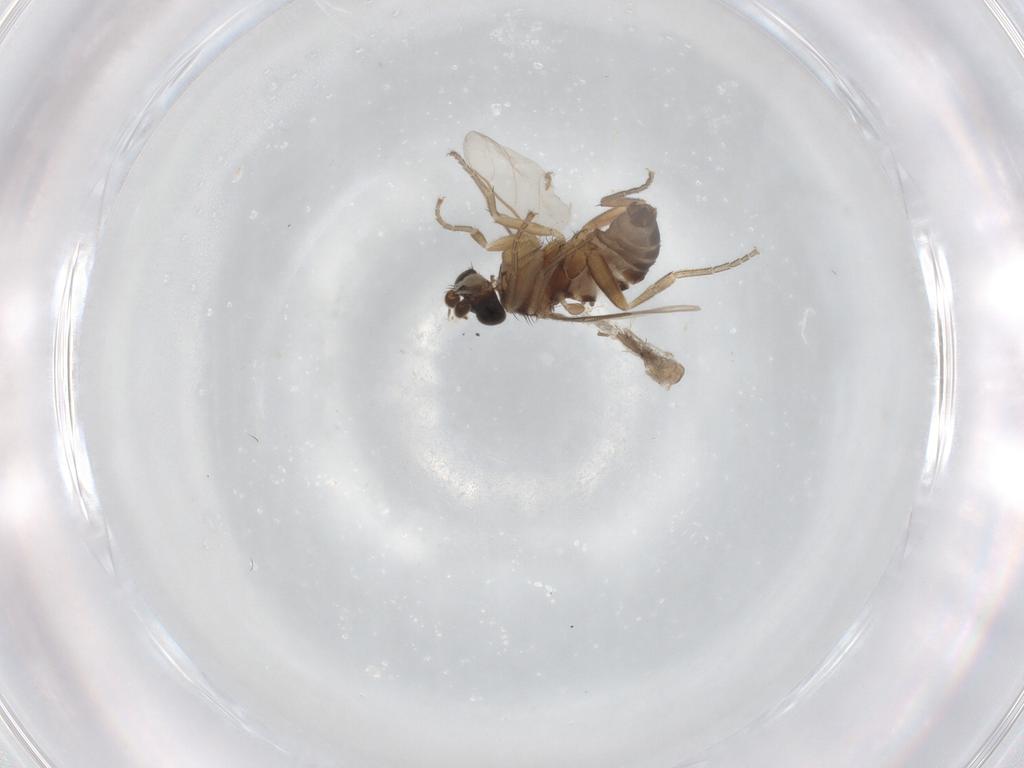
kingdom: Animalia
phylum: Arthropoda
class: Insecta
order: Diptera
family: Phoridae
